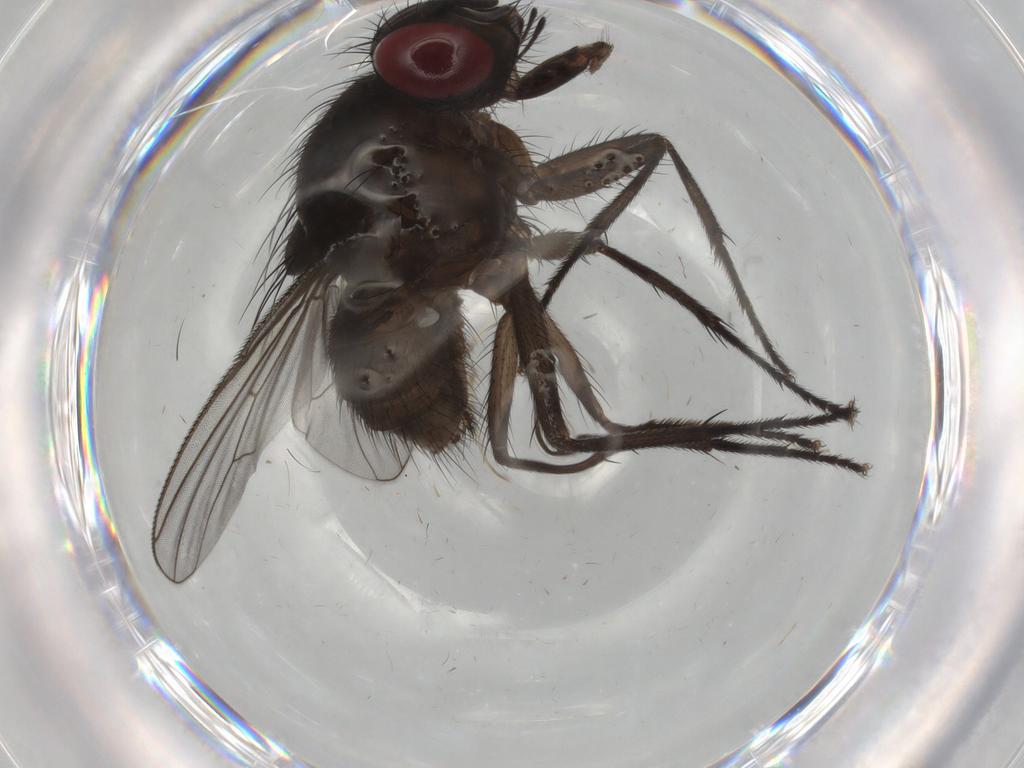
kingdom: Animalia
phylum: Arthropoda
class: Insecta
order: Diptera
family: Muscidae
